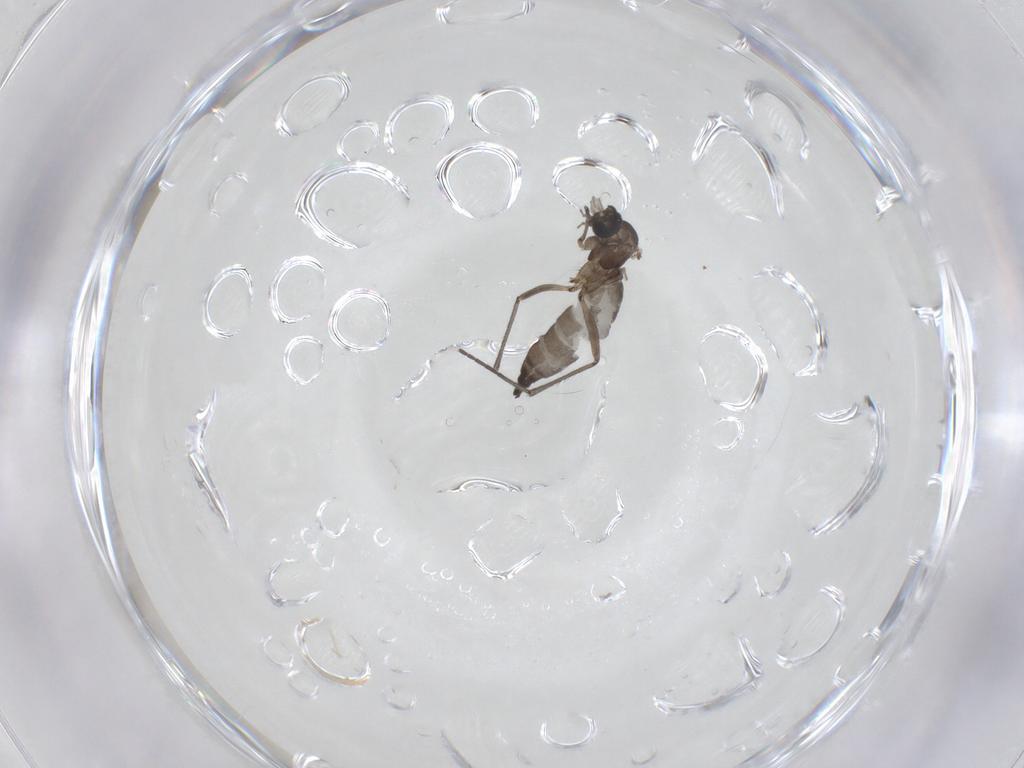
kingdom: Animalia
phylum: Arthropoda
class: Insecta
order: Diptera
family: Sciaridae
